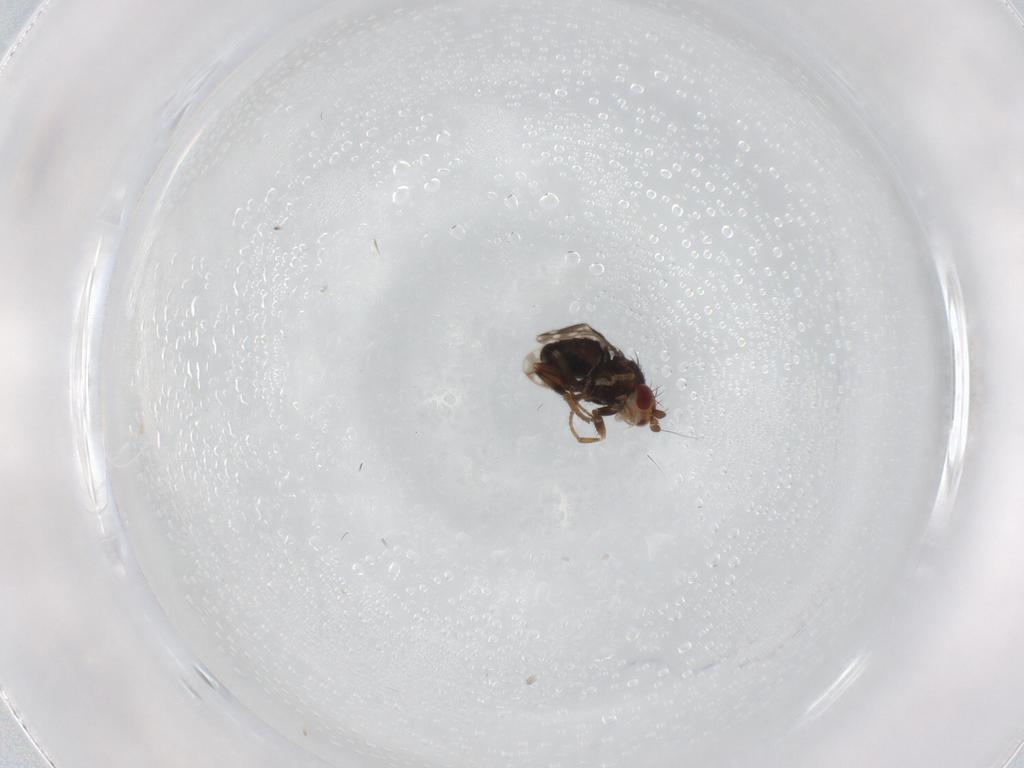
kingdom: Animalia
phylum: Arthropoda
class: Insecta
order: Diptera
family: Sphaeroceridae
